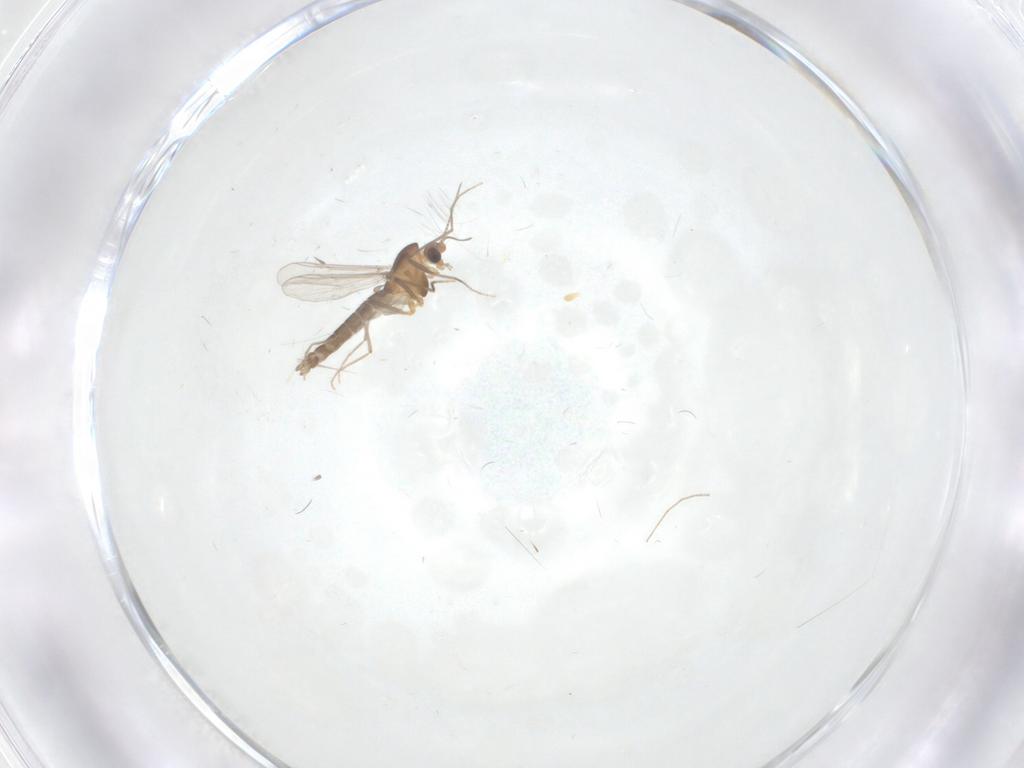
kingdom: Animalia
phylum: Arthropoda
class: Insecta
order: Diptera
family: Chironomidae
